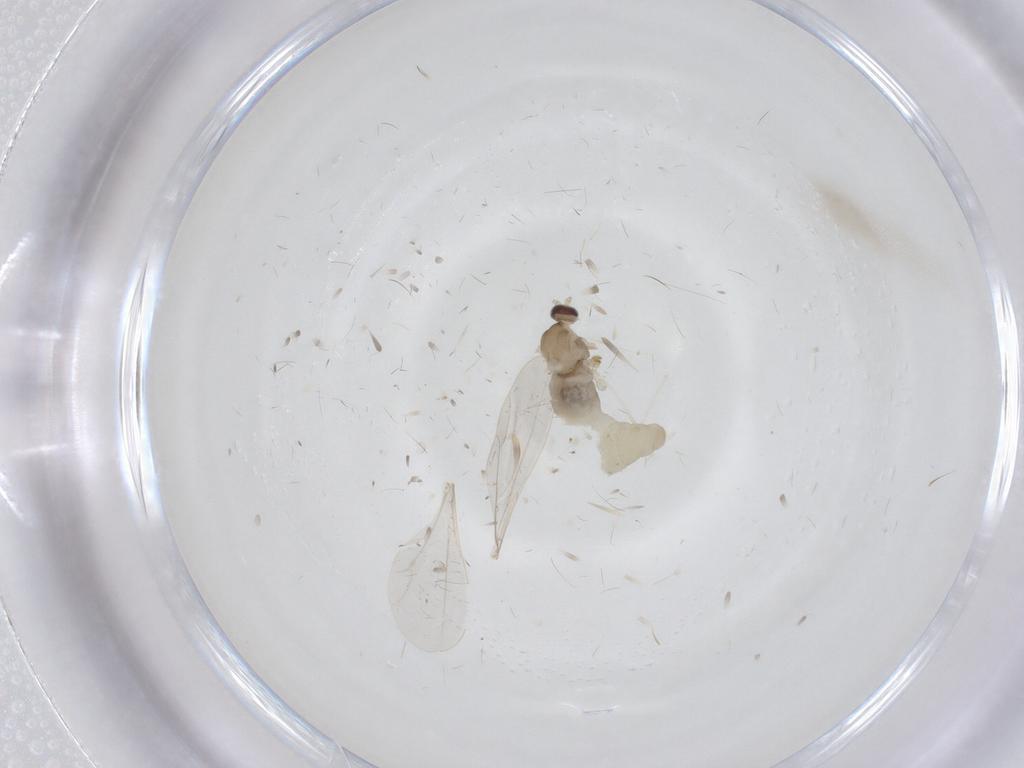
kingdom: Animalia
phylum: Arthropoda
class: Insecta
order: Diptera
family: Cecidomyiidae
